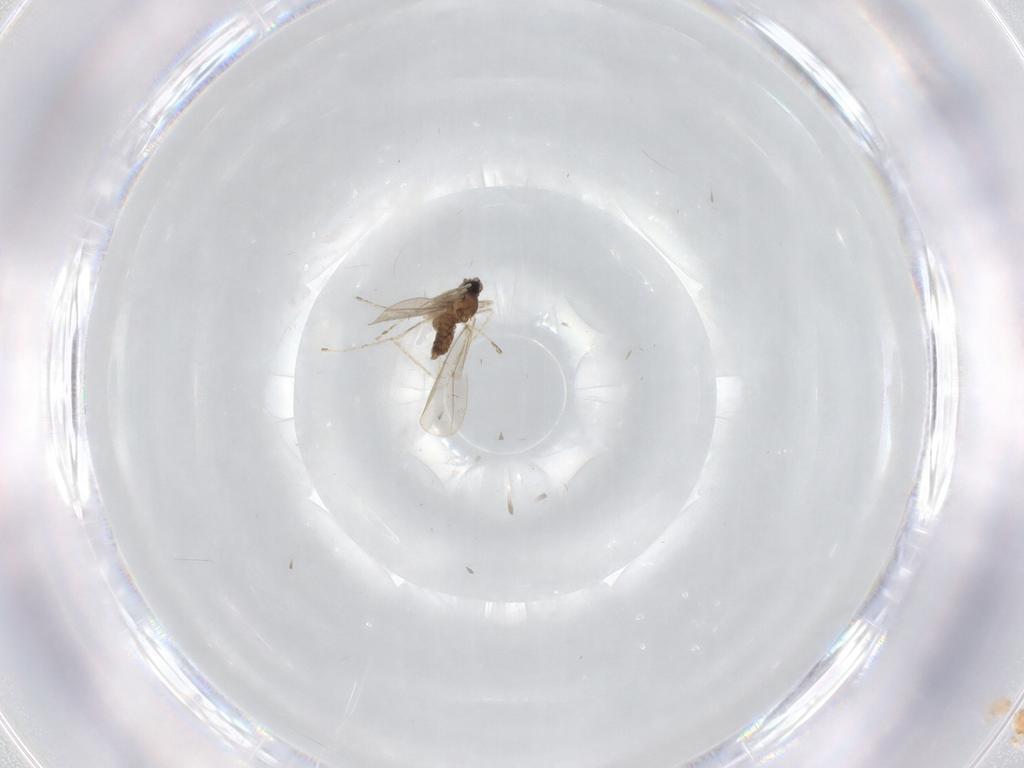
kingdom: Animalia
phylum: Arthropoda
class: Insecta
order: Diptera
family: Cecidomyiidae
